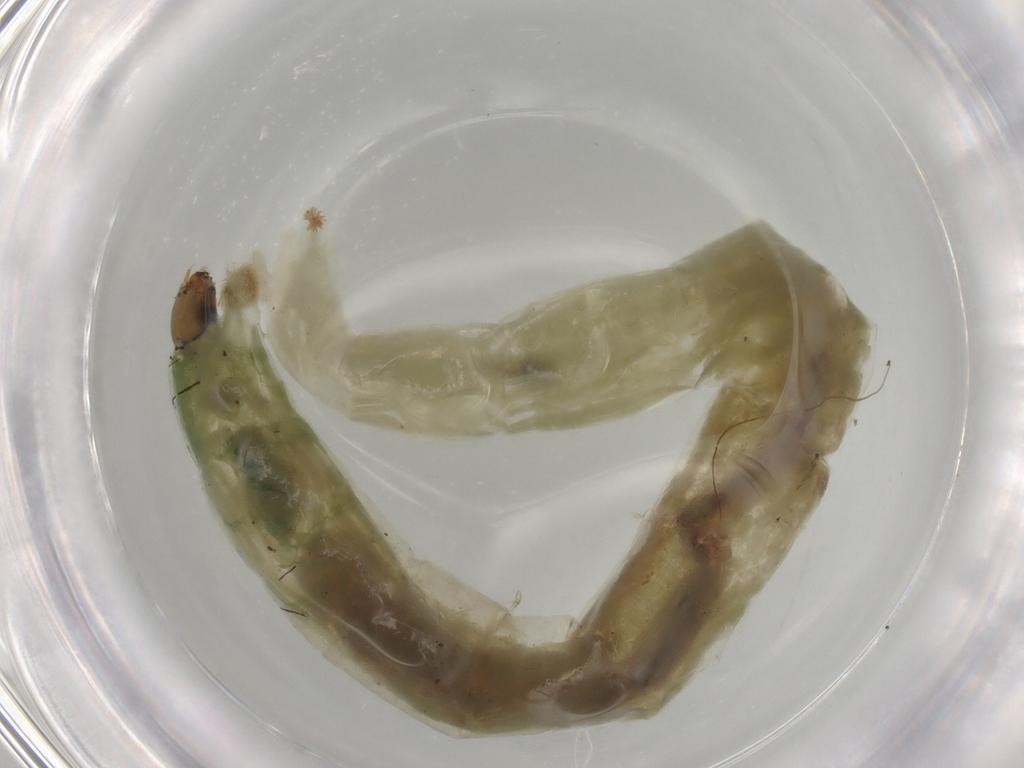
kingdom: Animalia
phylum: Arthropoda
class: Insecta
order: Diptera
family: Chironomidae
